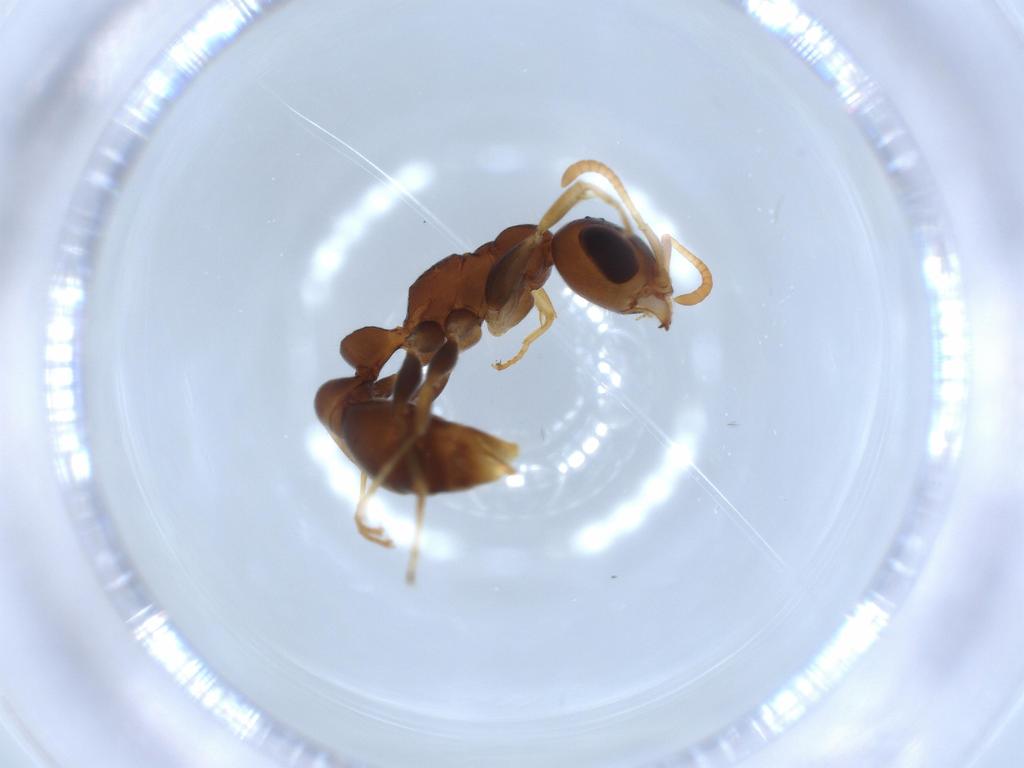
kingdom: Animalia
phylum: Arthropoda
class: Insecta
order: Hymenoptera
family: Formicidae
